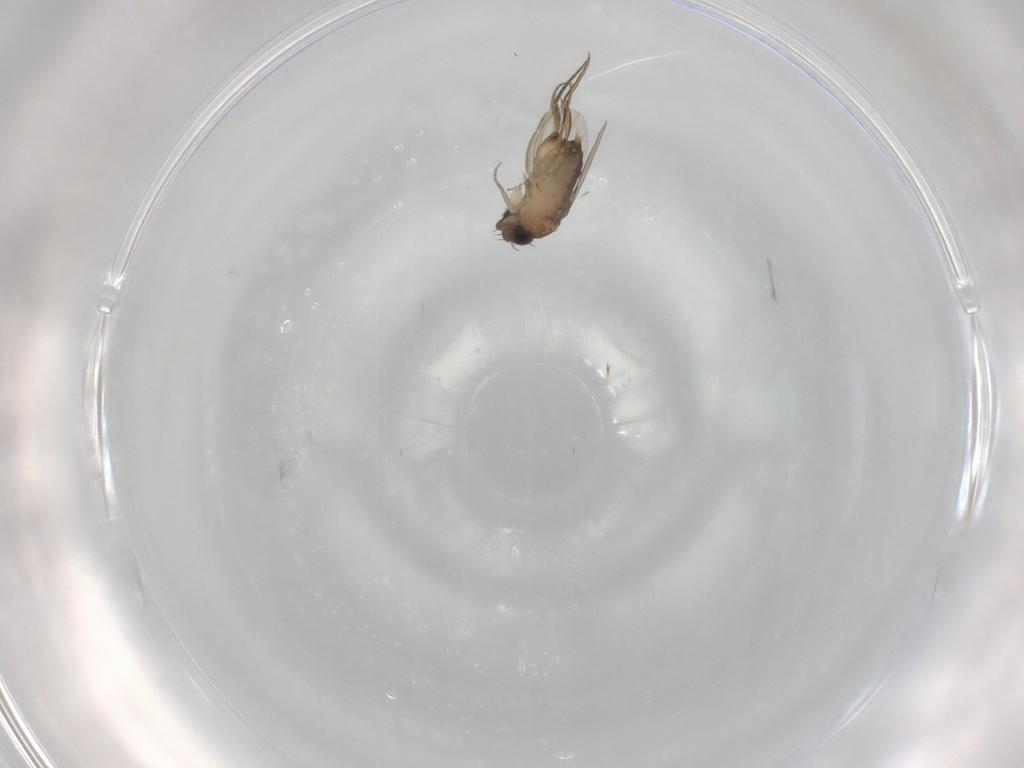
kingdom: Animalia
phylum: Arthropoda
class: Insecta
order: Diptera
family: Phoridae
